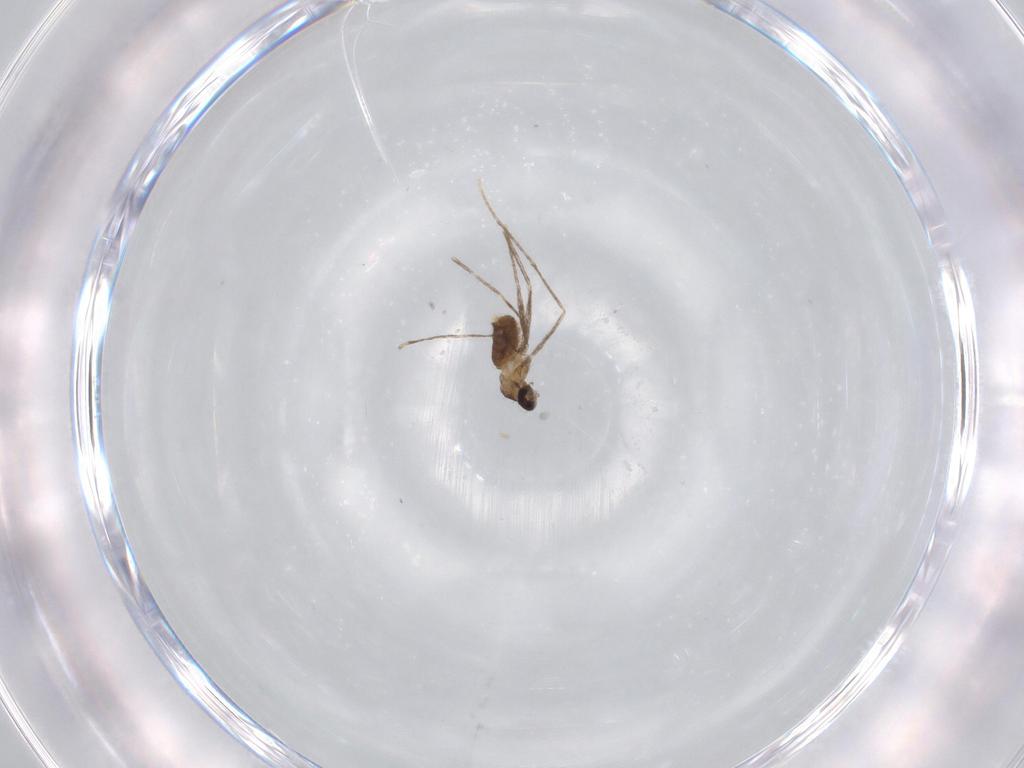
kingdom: Animalia
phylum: Arthropoda
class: Insecta
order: Diptera
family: Cecidomyiidae
